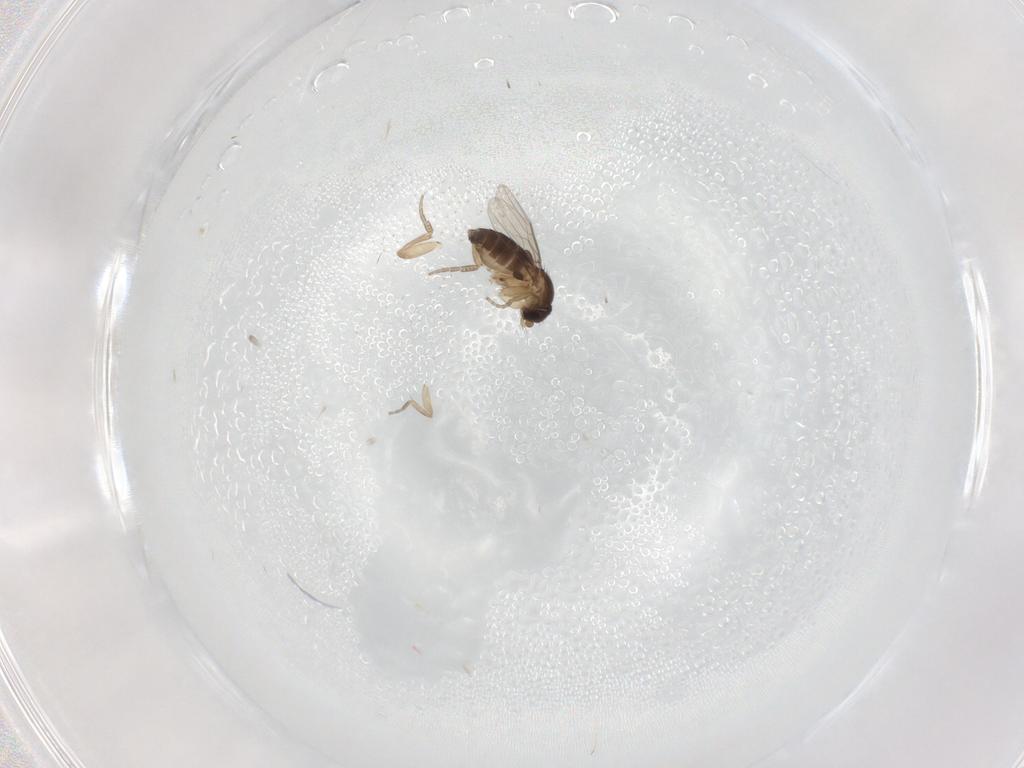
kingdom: Animalia
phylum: Arthropoda
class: Insecta
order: Diptera
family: Phoridae
